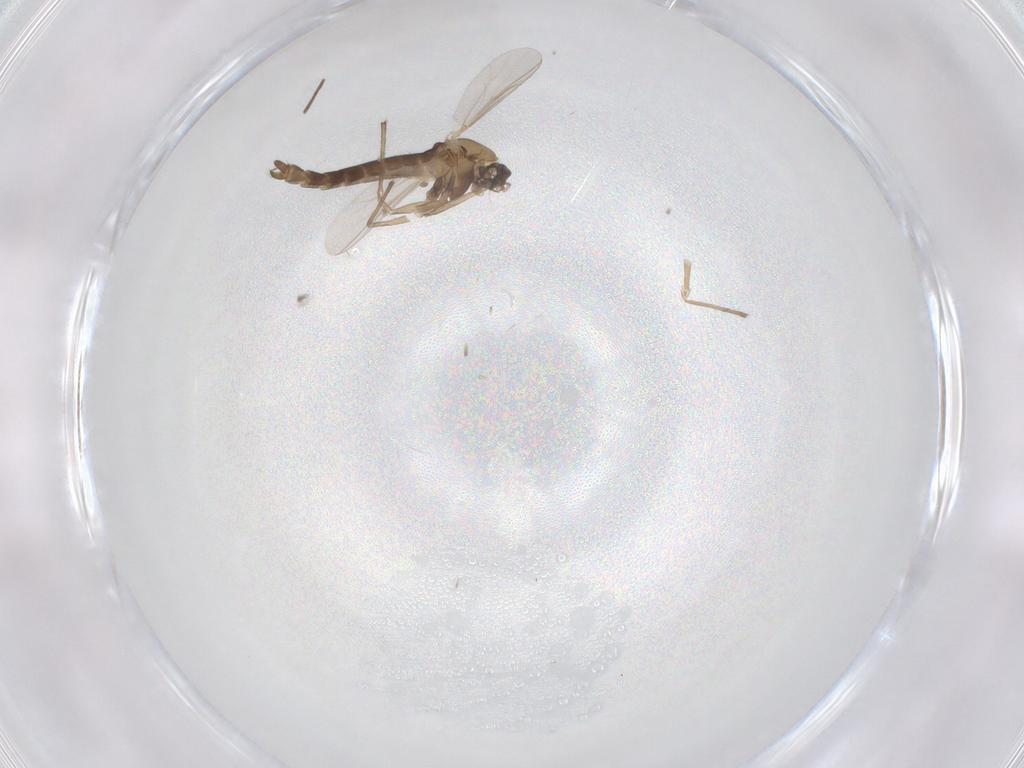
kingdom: Animalia
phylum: Arthropoda
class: Insecta
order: Diptera
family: Chironomidae
